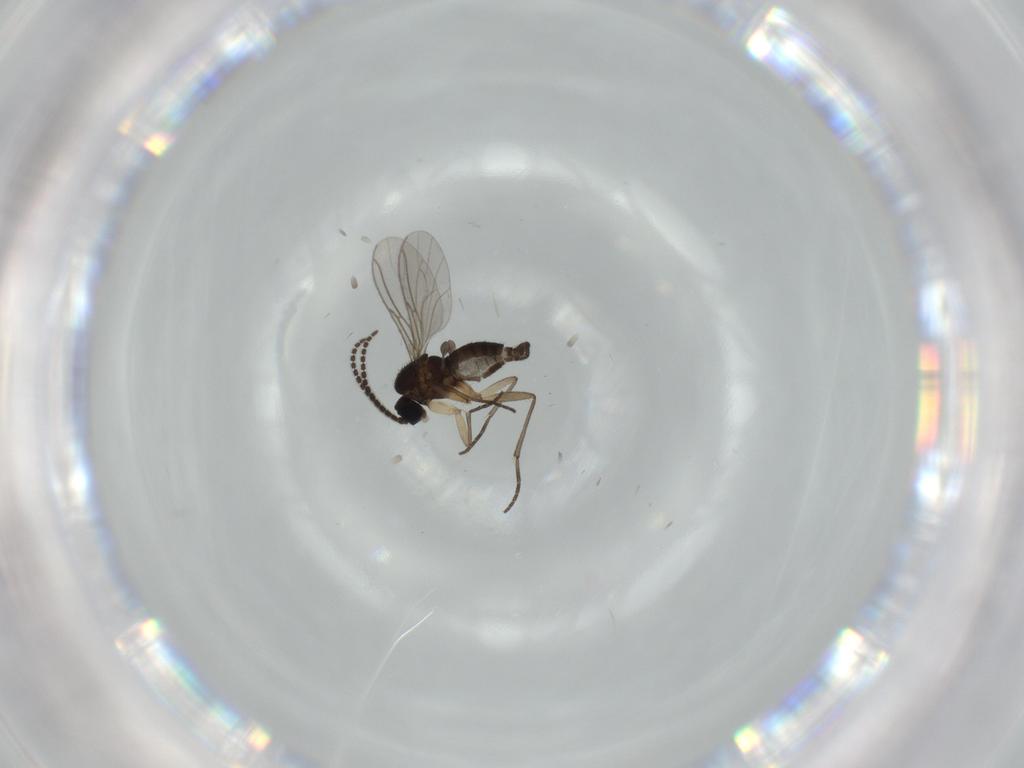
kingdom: Animalia
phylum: Arthropoda
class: Insecta
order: Diptera
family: Sciaridae
